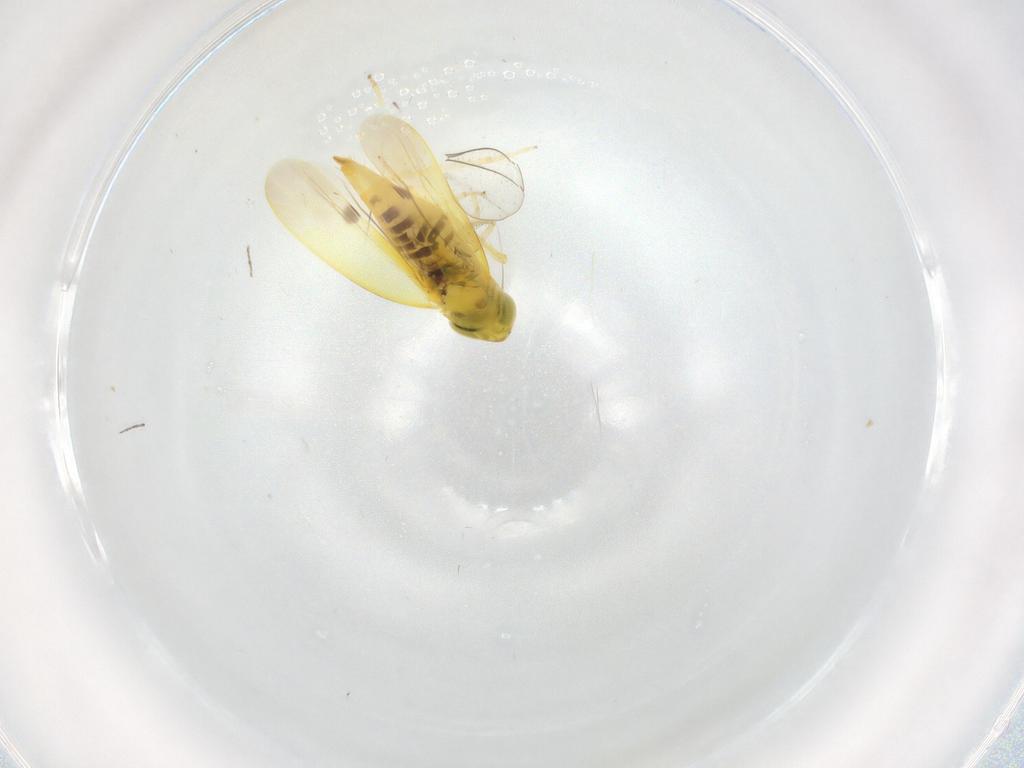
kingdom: Animalia
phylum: Arthropoda
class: Insecta
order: Hemiptera
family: Cicadellidae
